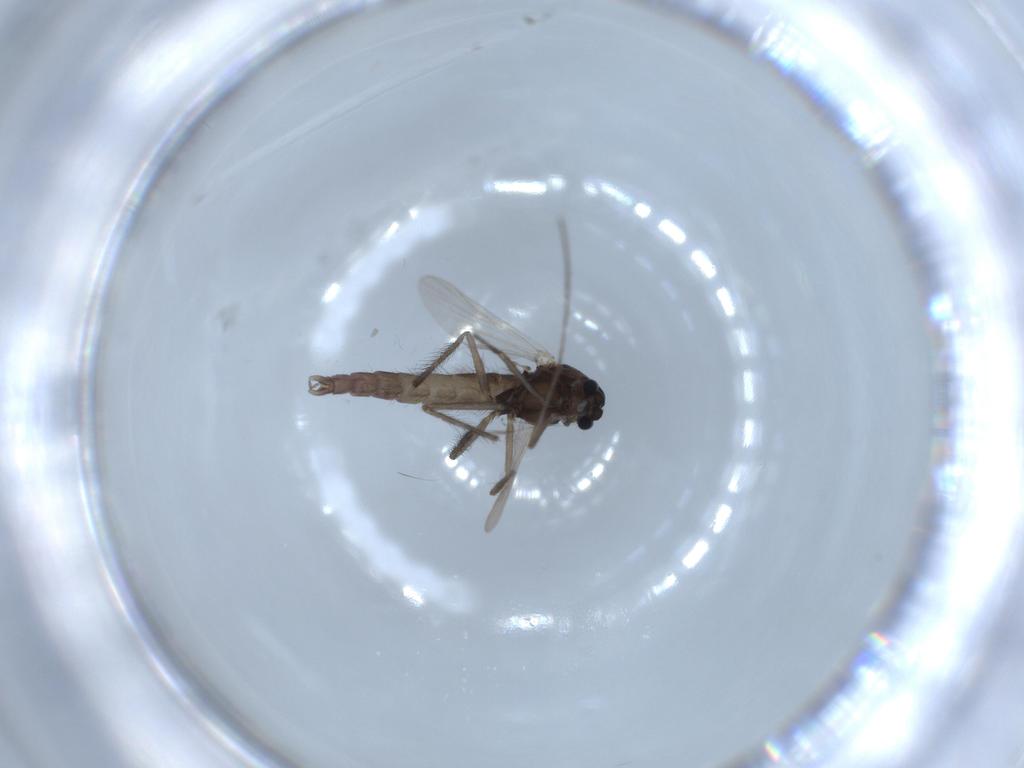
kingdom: Animalia
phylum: Arthropoda
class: Insecta
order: Diptera
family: Chironomidae
